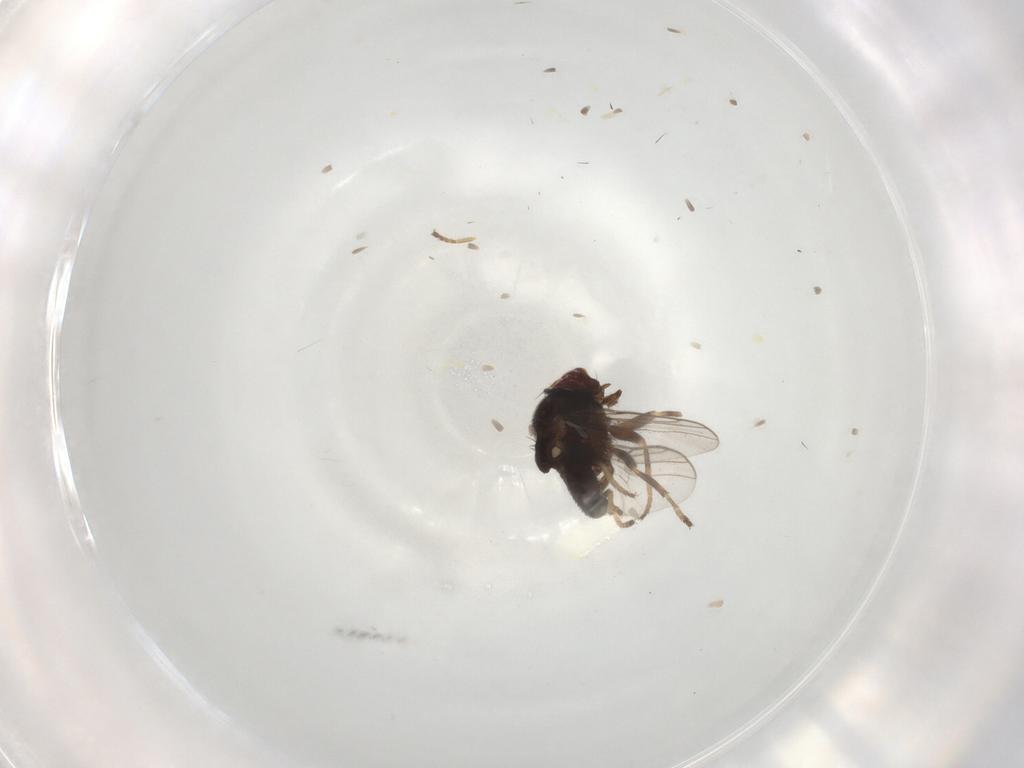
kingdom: Animalia
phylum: Arthropoda
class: Insecta
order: Diptera
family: Chloropidae
